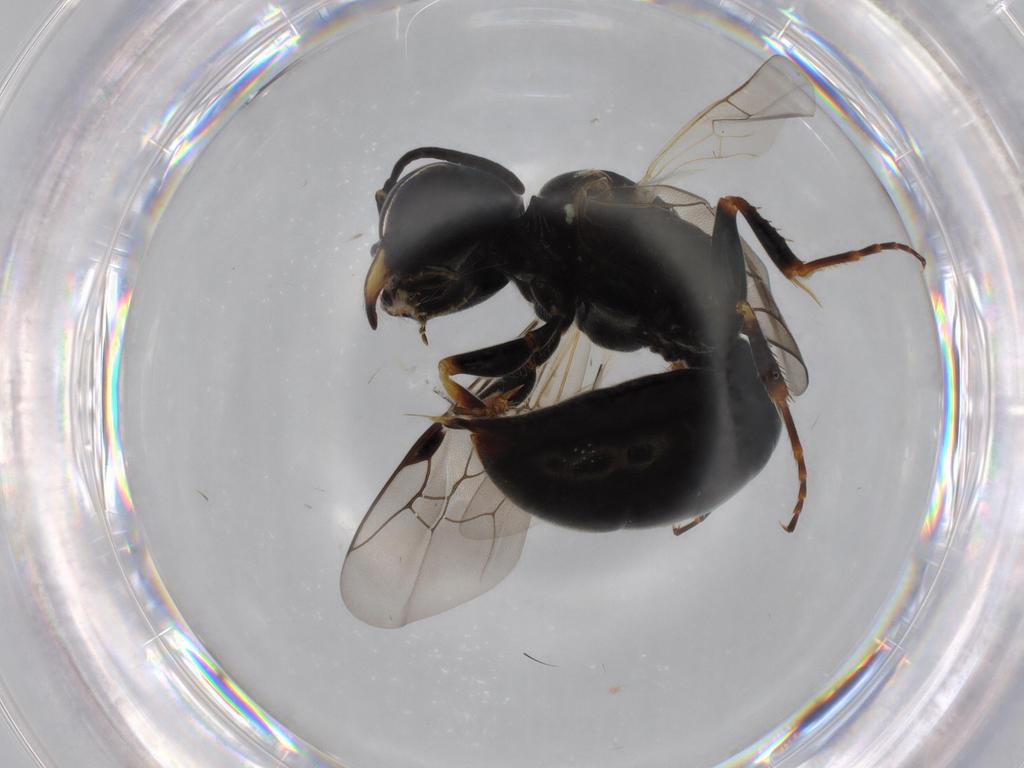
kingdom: Animalia
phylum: Arthropoda
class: Insecta
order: Hymenoptera
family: Crabronidae
